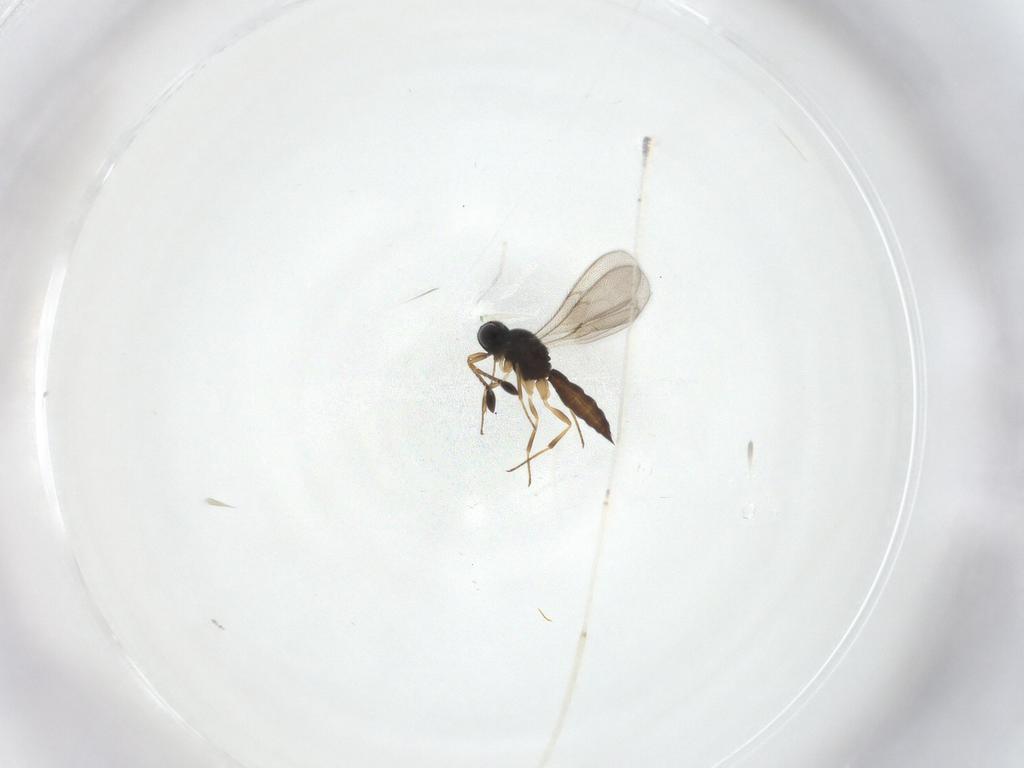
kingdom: Animalia
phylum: Arthropoda
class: Insecta
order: Hymenoptera
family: Scelionidae
